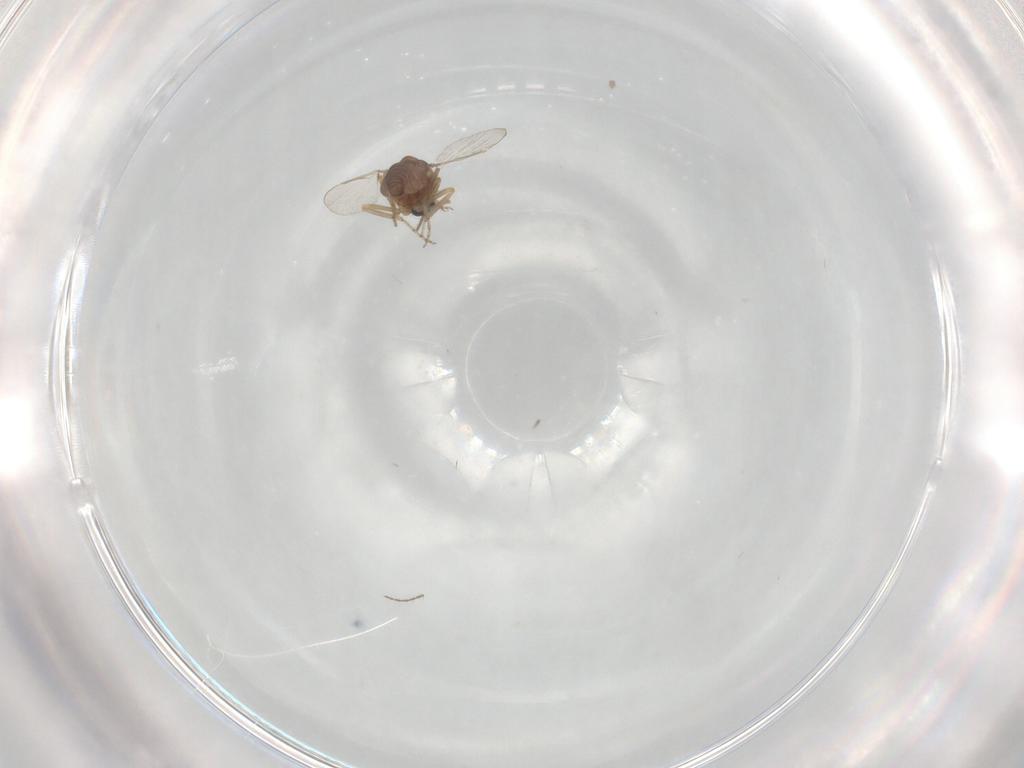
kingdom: Animalia
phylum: Arthropoda
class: Insecta
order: Diptera
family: Ceratopogonidae
